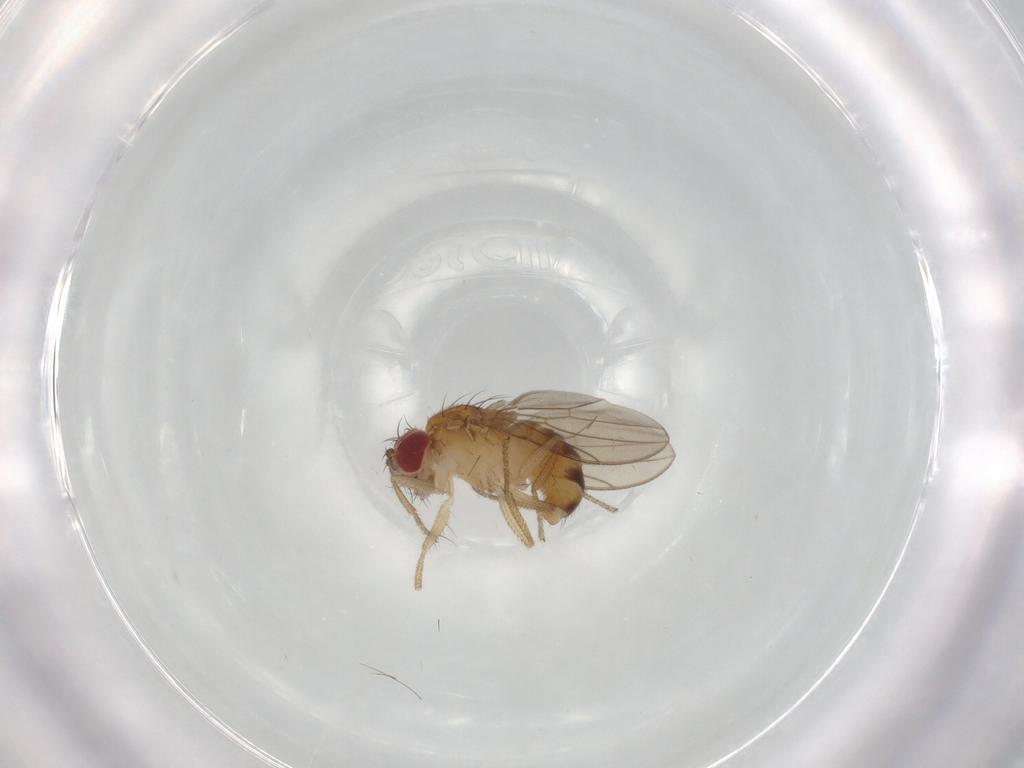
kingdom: Animalia
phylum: Arthropoda
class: Insecta
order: Diptera
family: Drosophilidae
